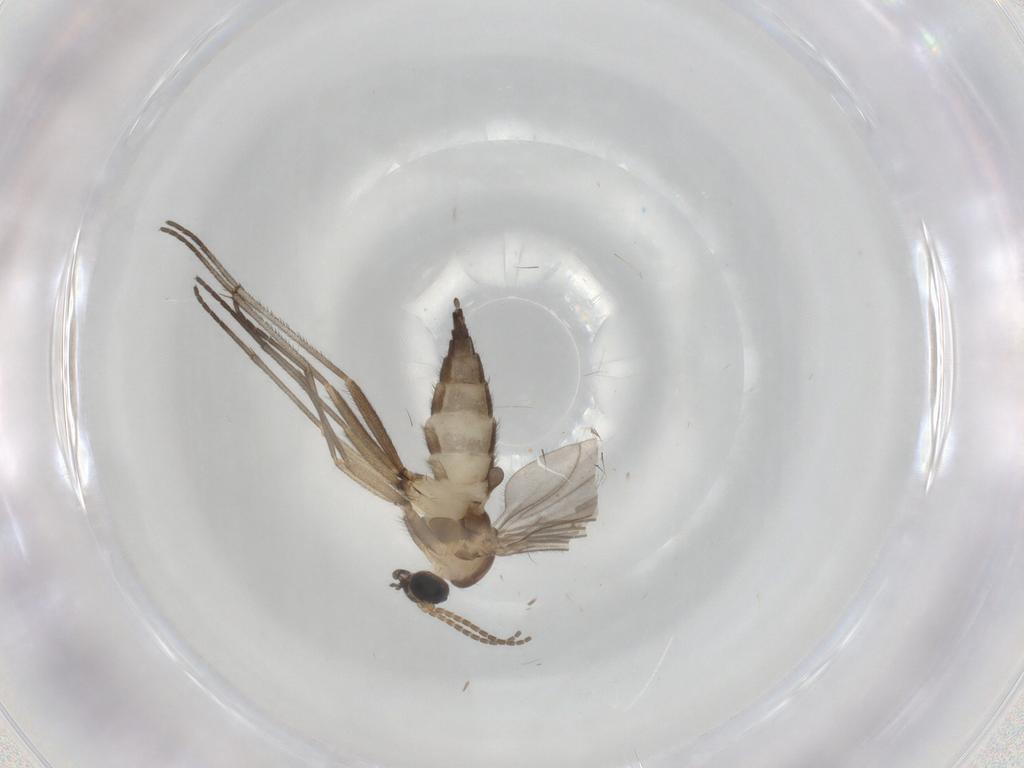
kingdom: Animalia
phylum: Arthropoda
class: Insecta
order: Diptera
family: Sciaridae
